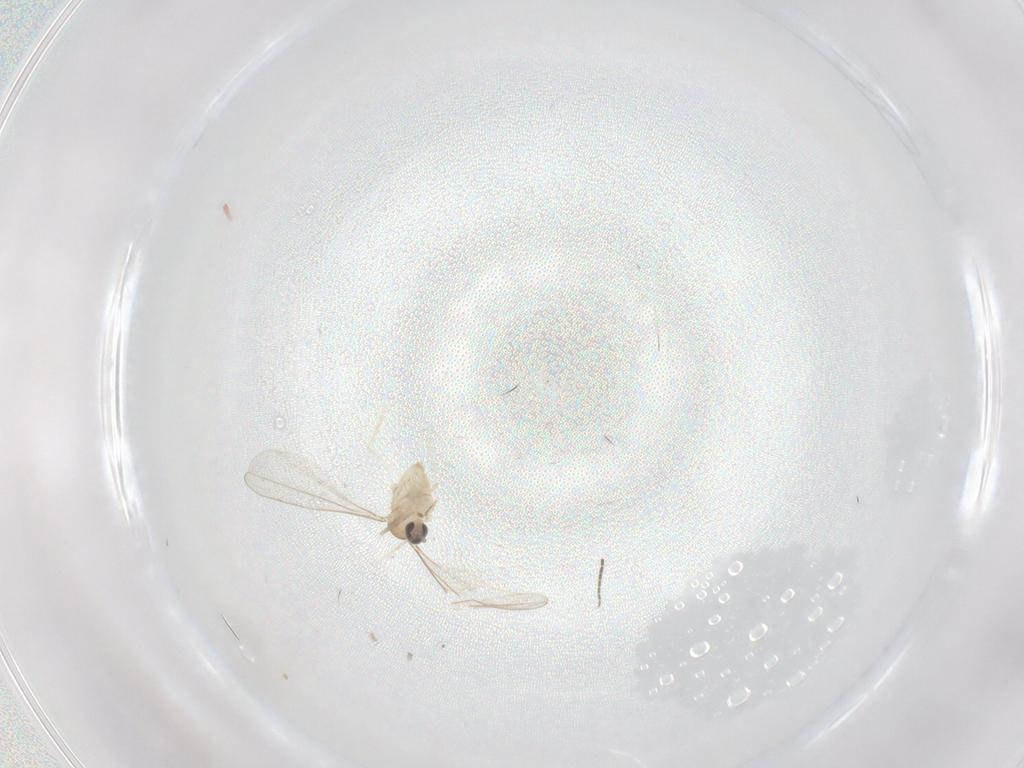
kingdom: Animalia
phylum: Arthropoda
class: Insecta
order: Diptera
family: Cecidomyiidae
